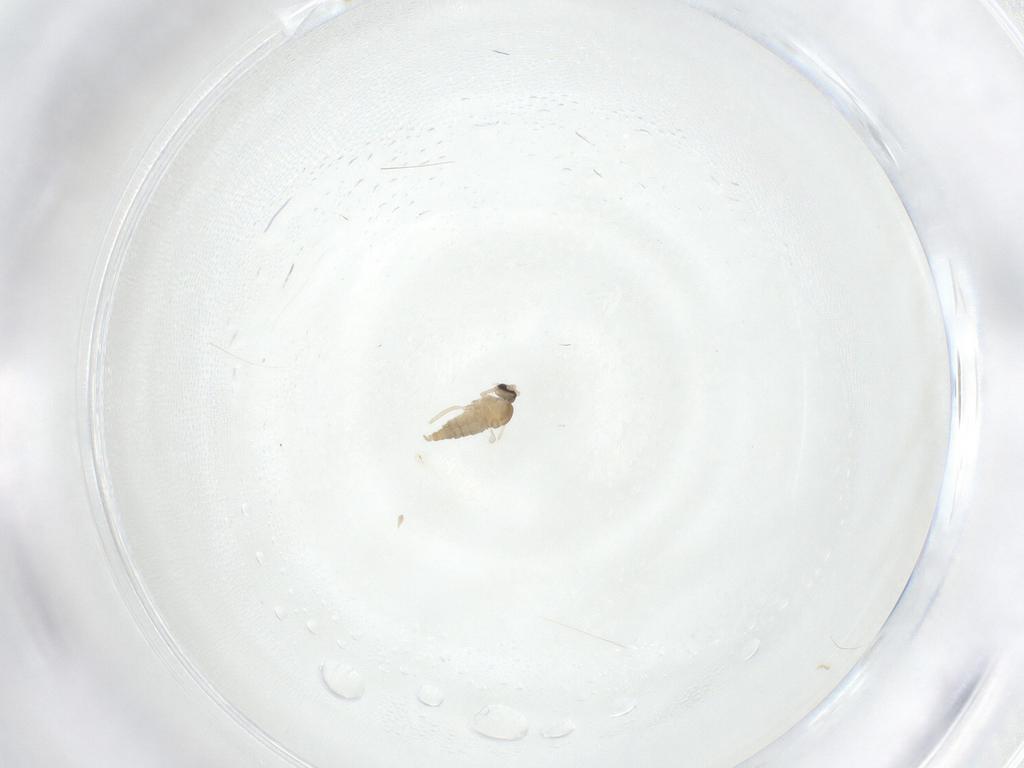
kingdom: Animalia
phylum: Arthropoda
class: Insecta
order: Diptera
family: Cecidomyiidae
